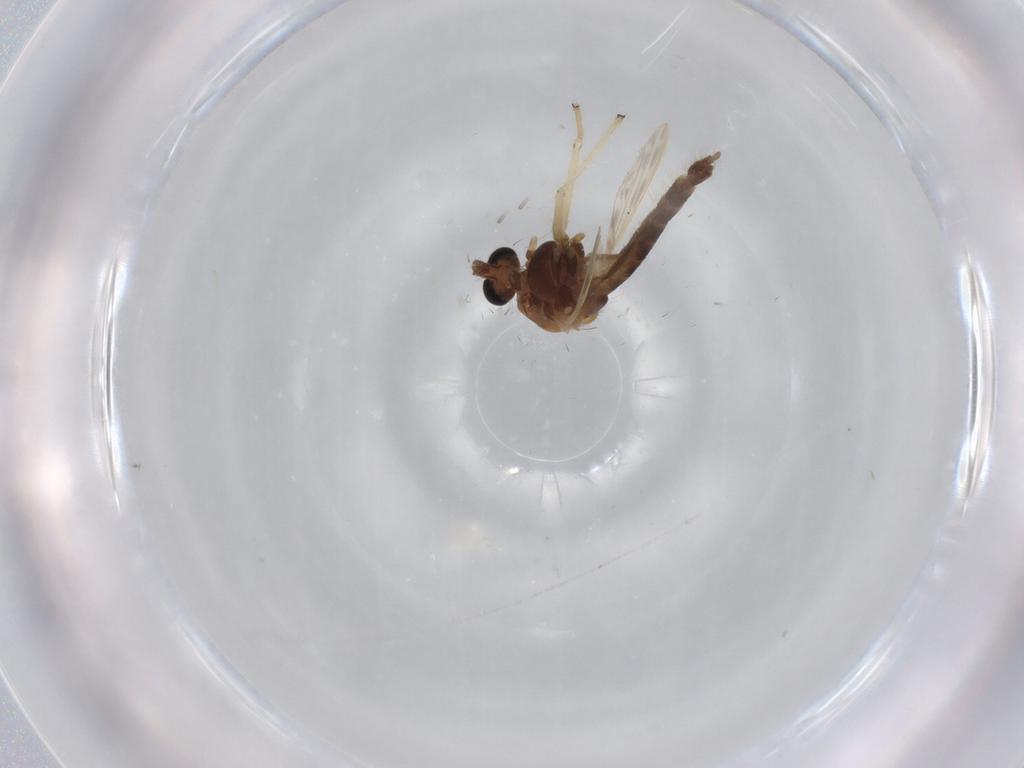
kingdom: Animalia
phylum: Arthropoda
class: Insecta
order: Diptera
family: Chironomidae
